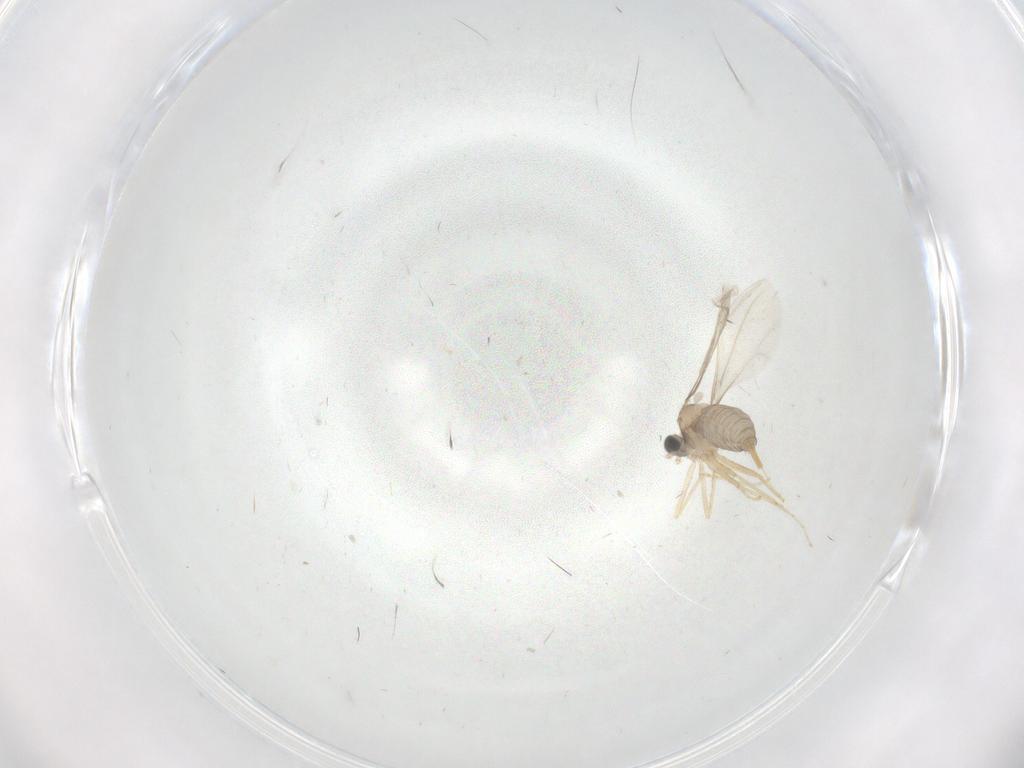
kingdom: Animalia
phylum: Arthropoda
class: Insecta
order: Diptera
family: Cecidomyiidae
